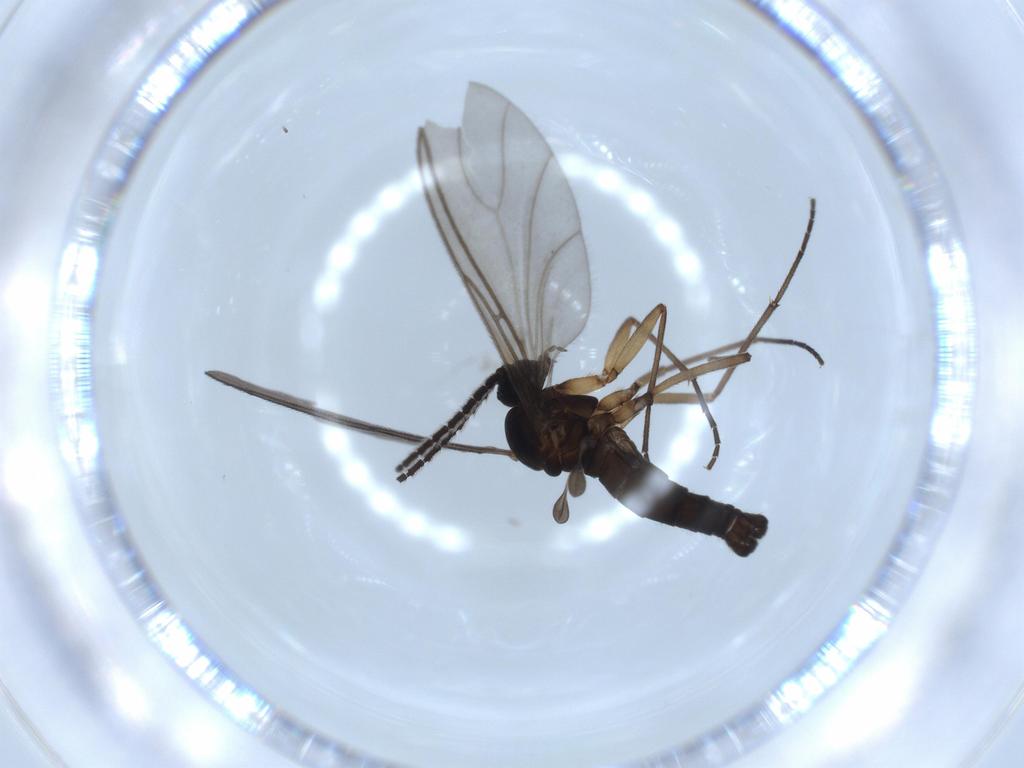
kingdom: Animalia
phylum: Arthropoda
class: Insecta
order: Diptera
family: Sciaridae
